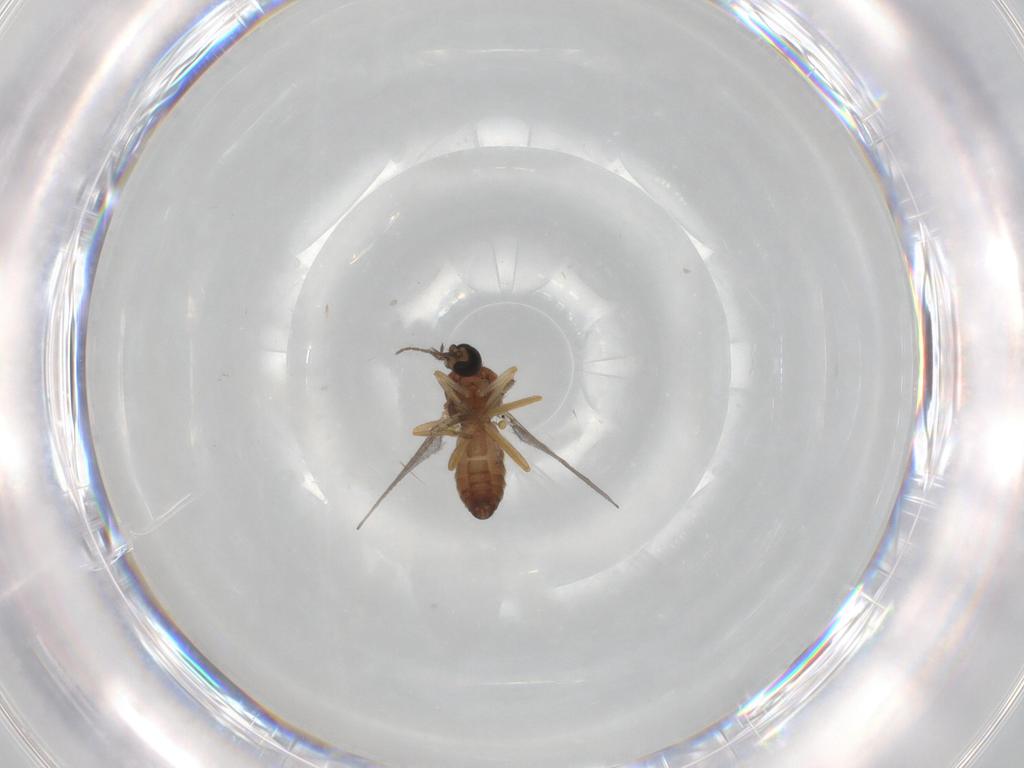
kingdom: Animalia
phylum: Arthropoda
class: Insecta
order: Diptera
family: Ceratopogonidae
